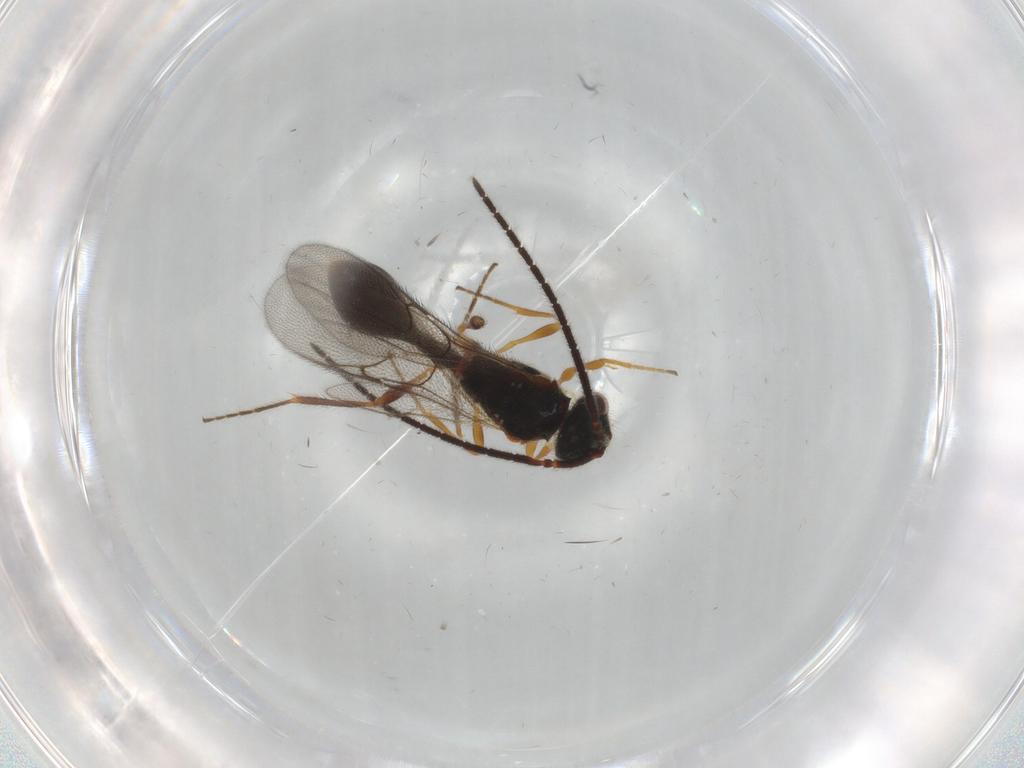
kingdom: Animalia
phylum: Arthropoda
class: Insecta
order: Hymenoptera
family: Diapriidae
